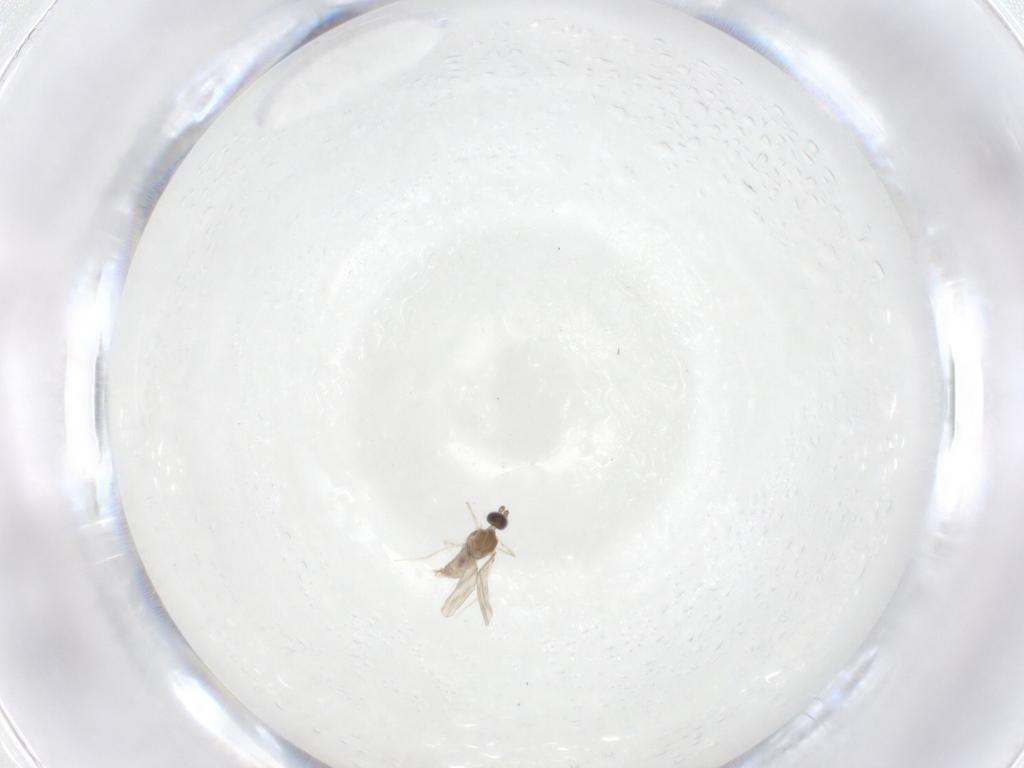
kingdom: Animalia
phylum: Arthropoda
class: Insecta
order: Diptera
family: Cecidomyiidae
